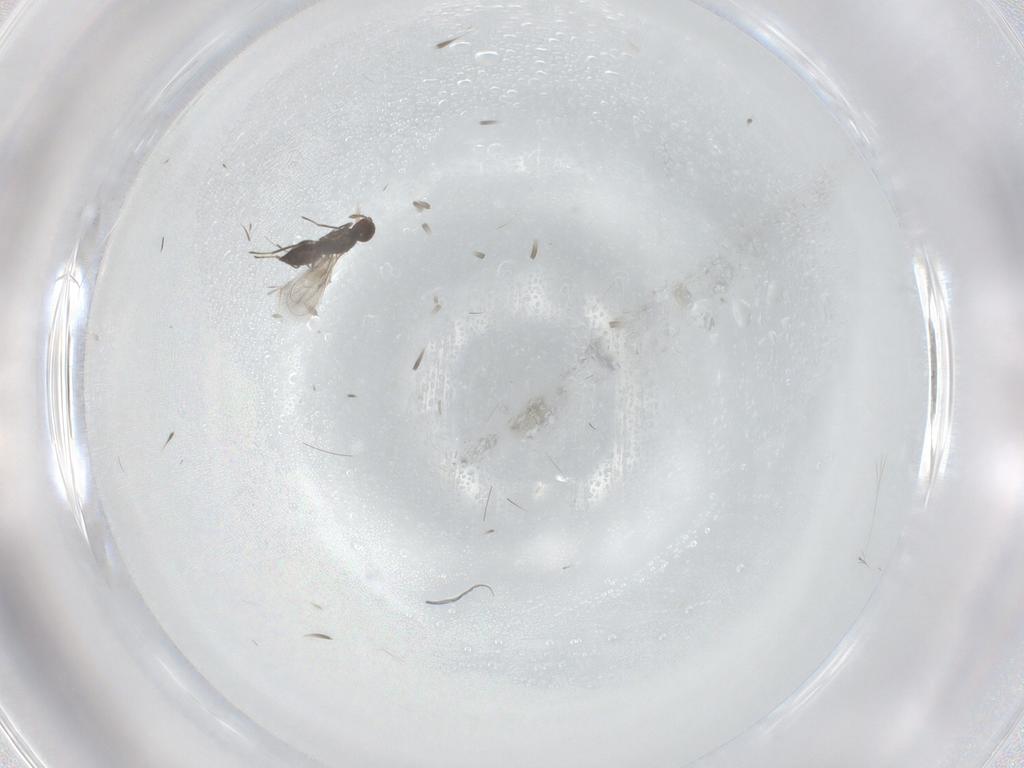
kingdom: Animalia
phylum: Arthropoda
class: Insecta
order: Hymenoptera
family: Eulophidae
